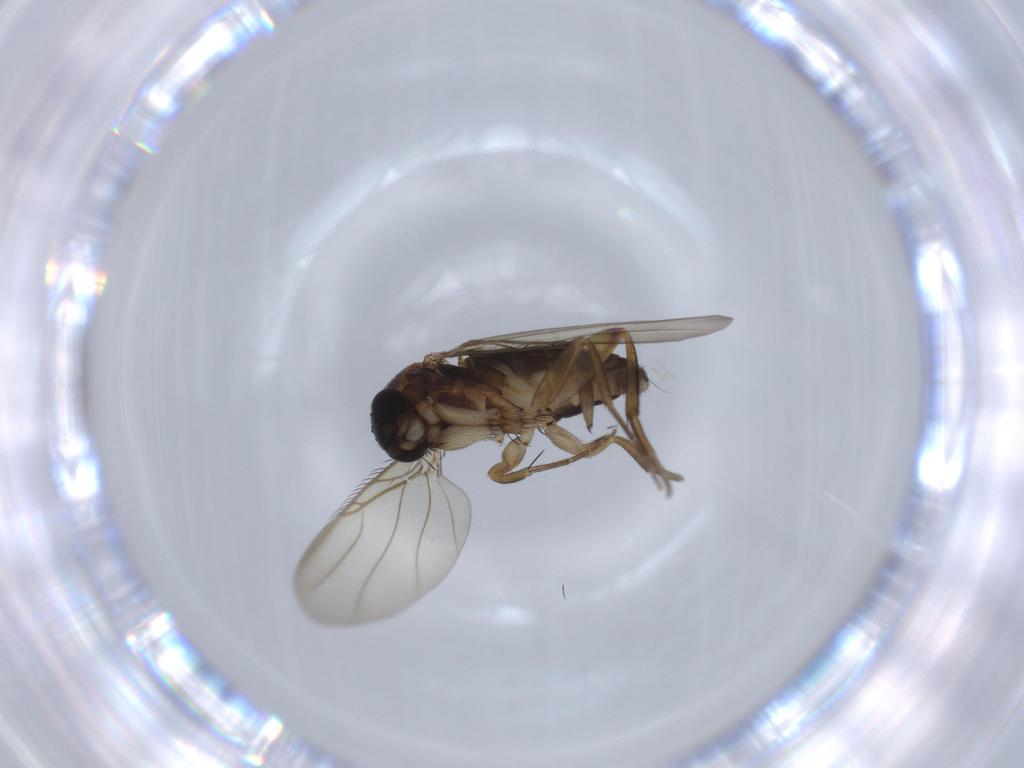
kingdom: Animalia
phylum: Arthropoda
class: Insecta
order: Diptera
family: Phoridae
